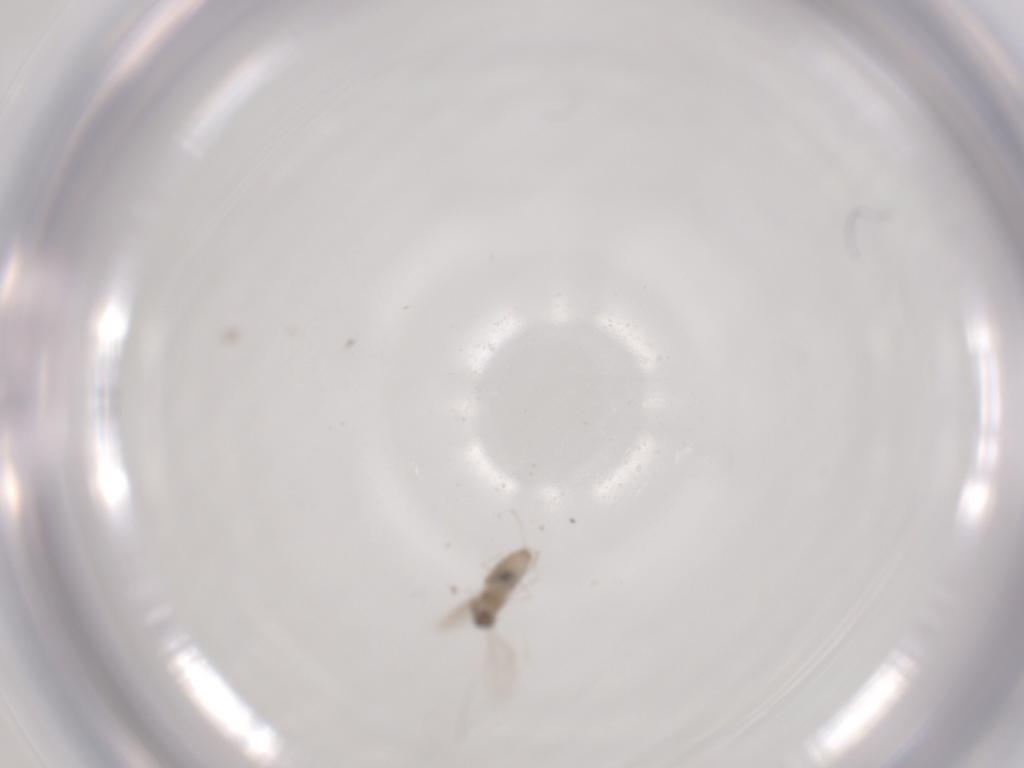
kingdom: Animalia
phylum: Arthropoda
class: Insecta
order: Diptera
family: Cecidomyiidae
